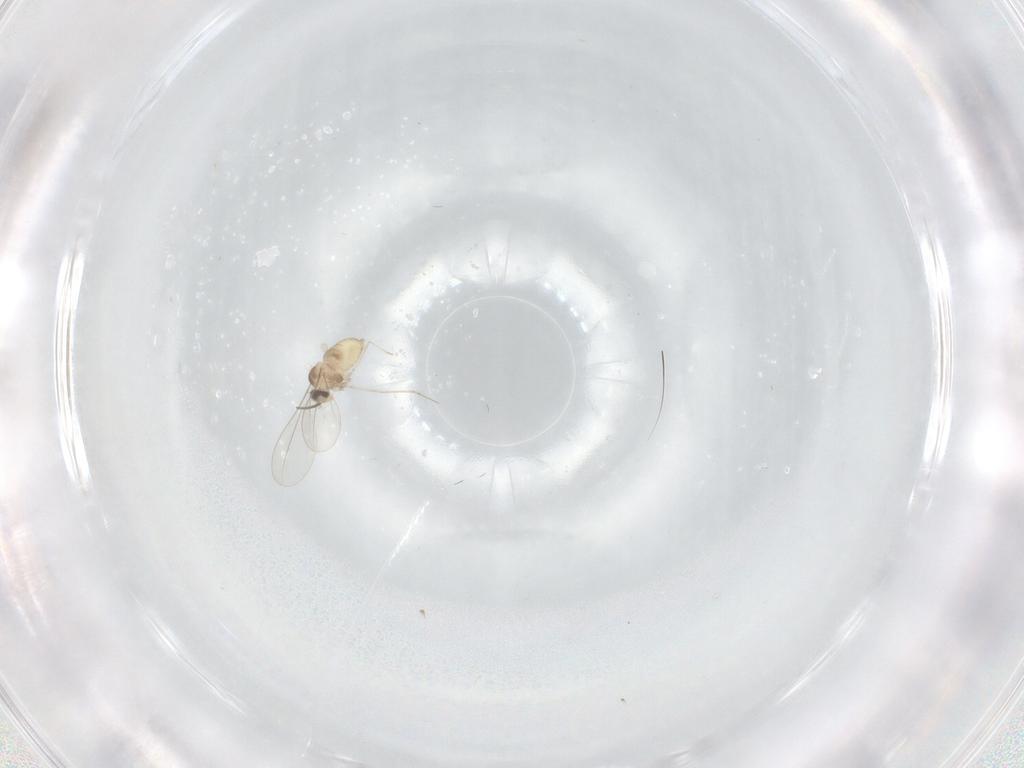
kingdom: Animalia
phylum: Arthropoda
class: Insecta
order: Diptera
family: Cecidomyiidae
